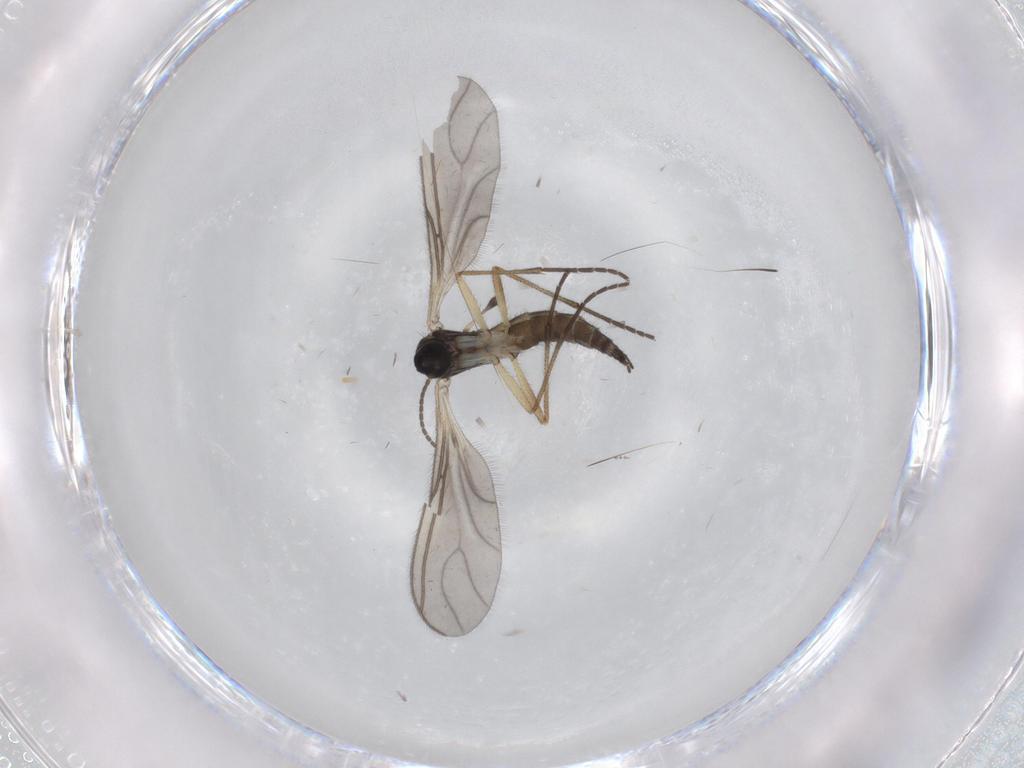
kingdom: Animalia
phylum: Arthropoda
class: Insecta
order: Diptera
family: Sciaridae
